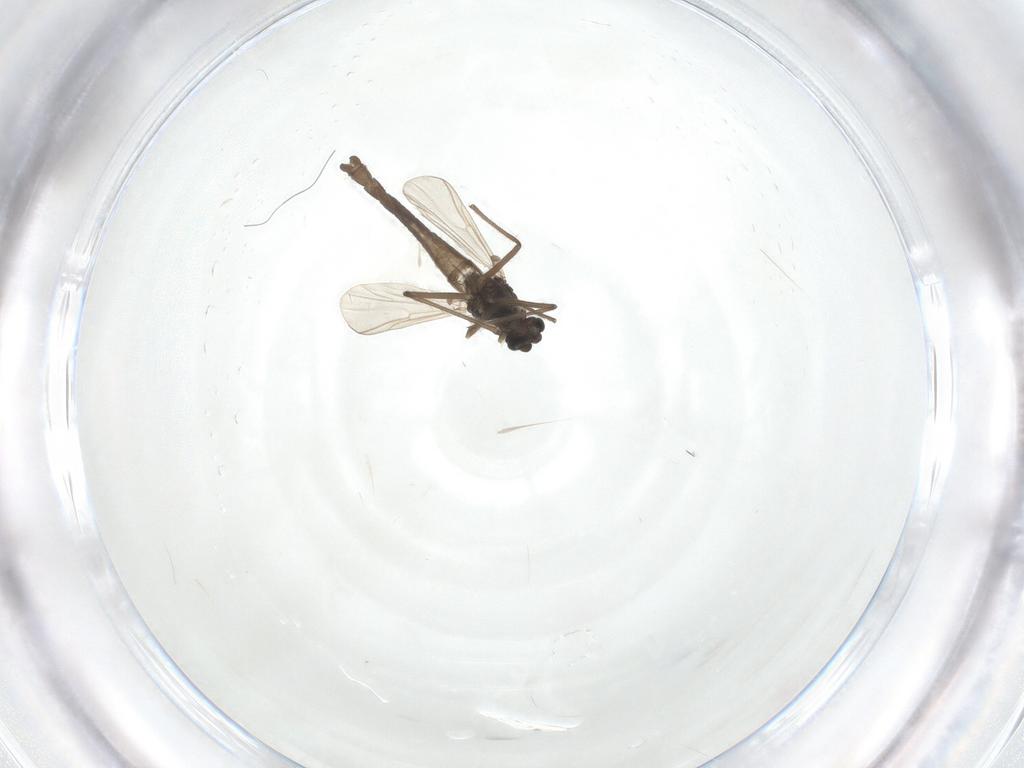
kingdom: Animalia
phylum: Arthropoda
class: Insecta
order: Diptera
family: Chironomidae
